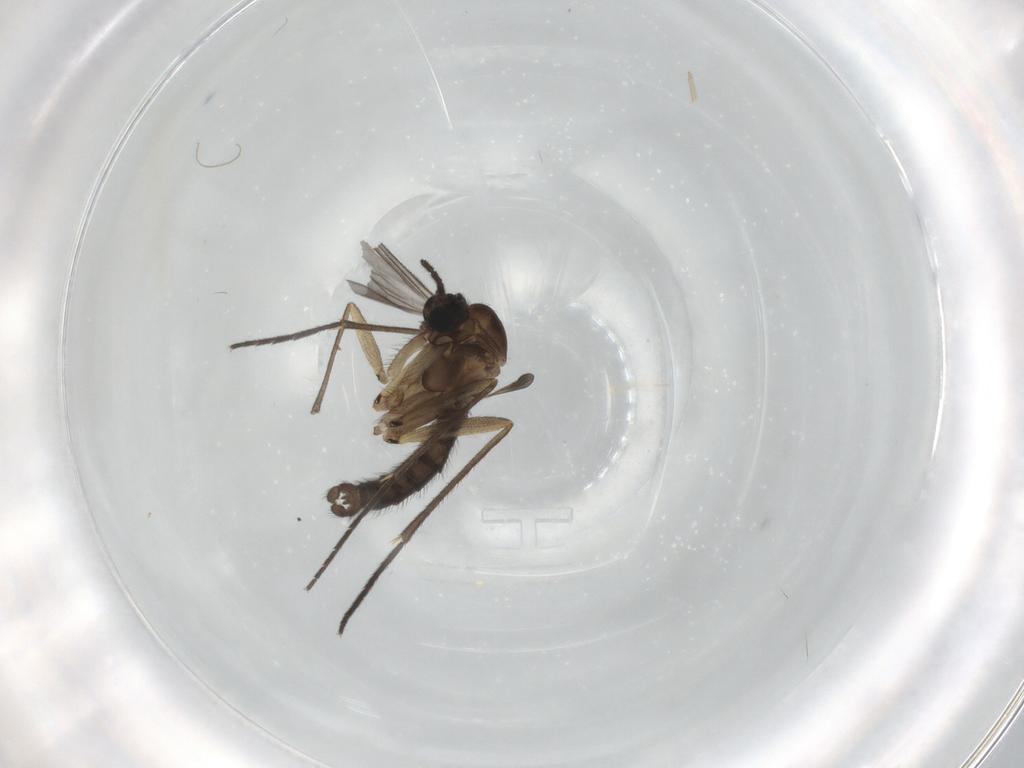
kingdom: Animalia
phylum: Arthropoda
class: Insecta
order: Diptera
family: Sciaridae
